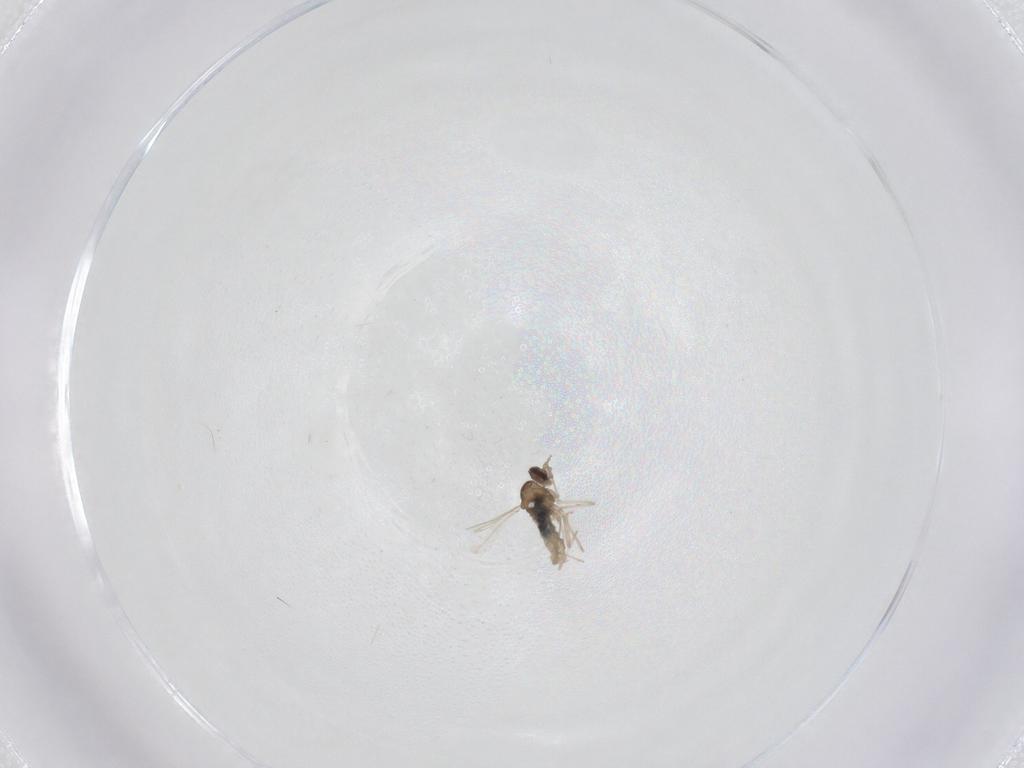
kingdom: Animalia
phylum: Arthropoda
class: Insecta
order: Diptera
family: Cecidomyiidae
